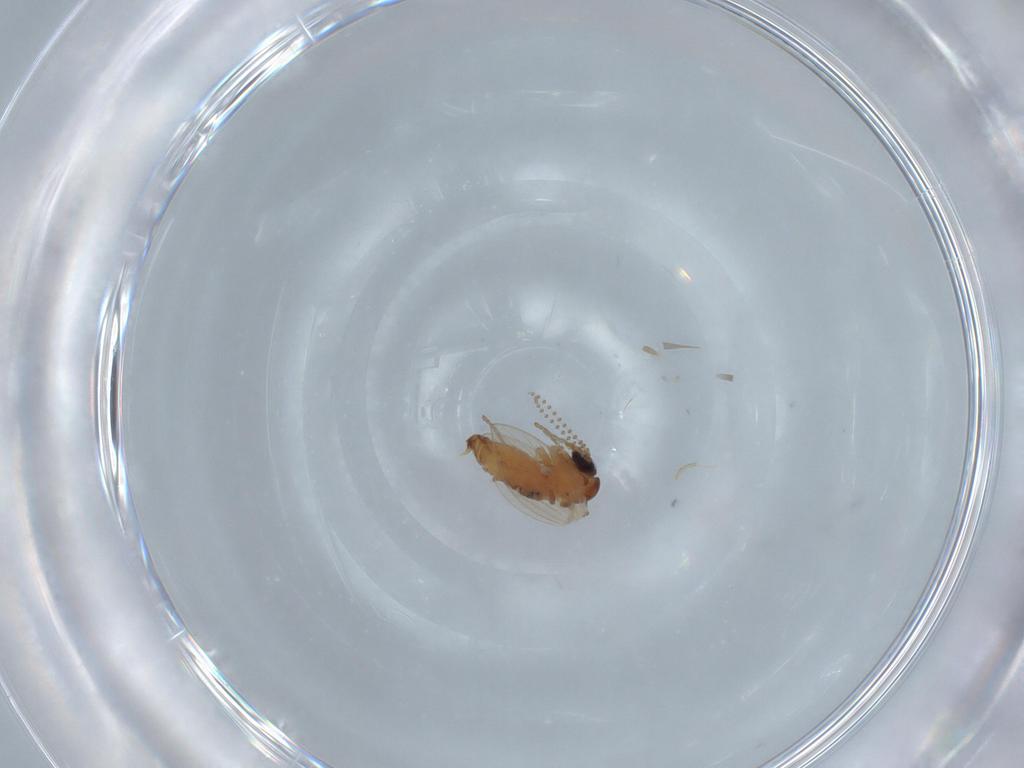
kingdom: Animalia
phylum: Arthropoda
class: Insecta
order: Diptera
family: Psychodidae
